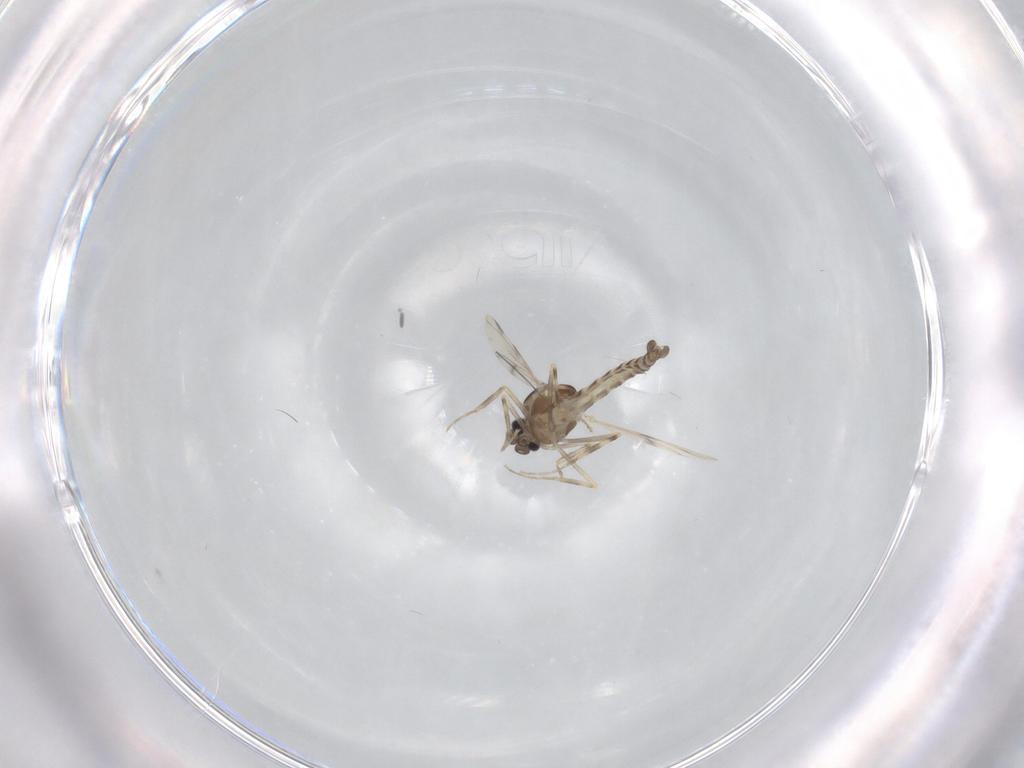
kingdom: Animalia
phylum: Arthropoda
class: Insecta
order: Diptera
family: Ceratopogonidae
